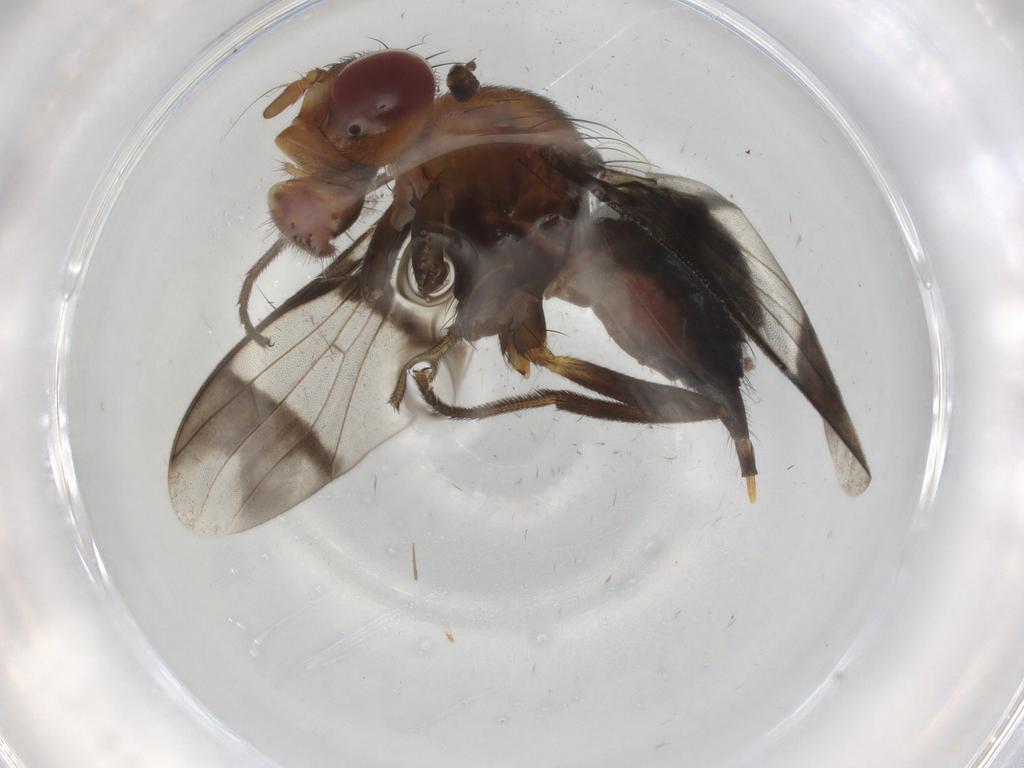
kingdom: Animalia
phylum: Arthropoda
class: Insecta
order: Diptera
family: Richardiidae
